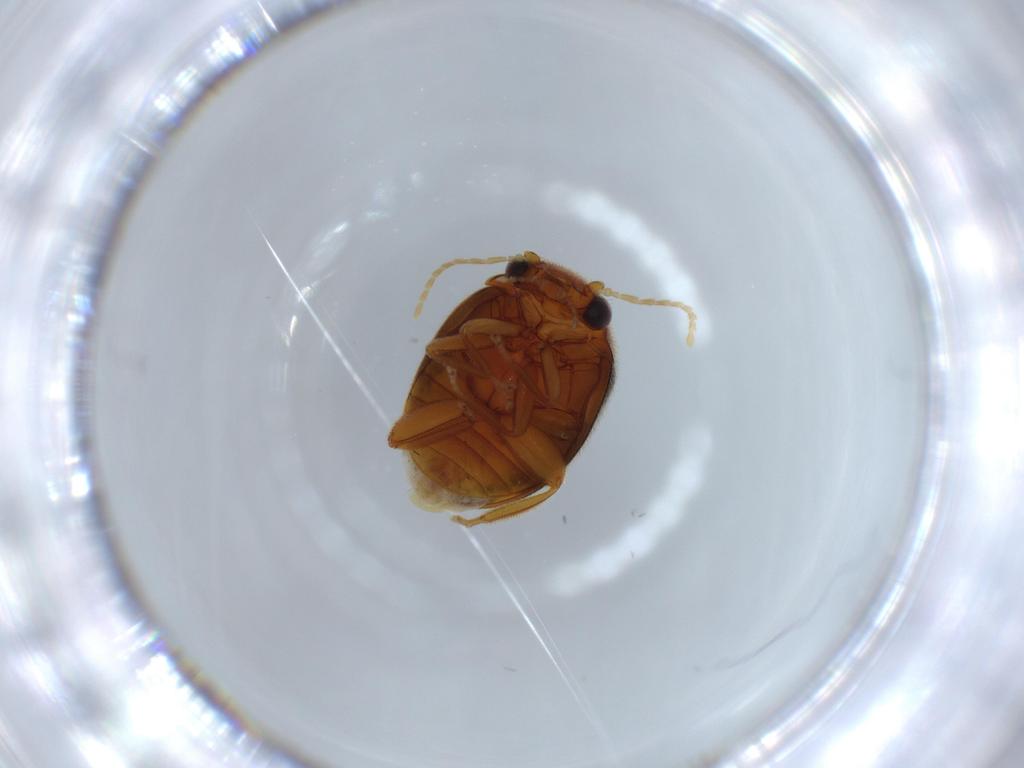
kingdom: Animalia
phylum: Arthropoda
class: Insecta
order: Coleoptera
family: Scirtidae
